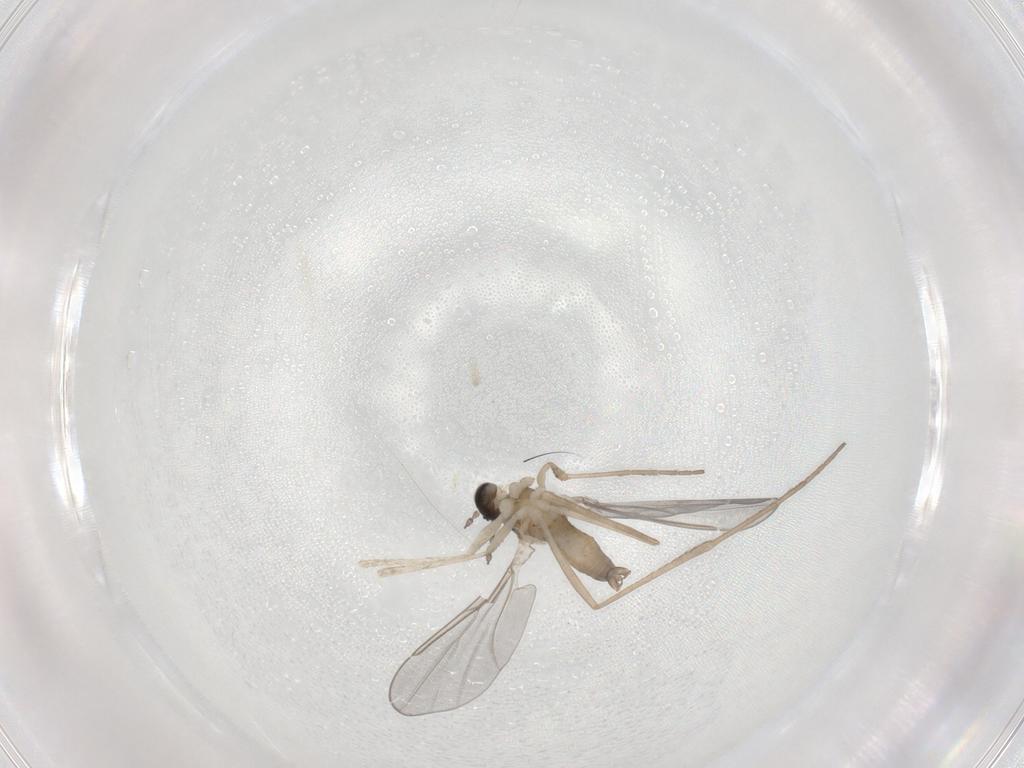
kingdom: Animalia
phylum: Arthropoda
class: Insecta
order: Diptera
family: Cecidomyiidae
